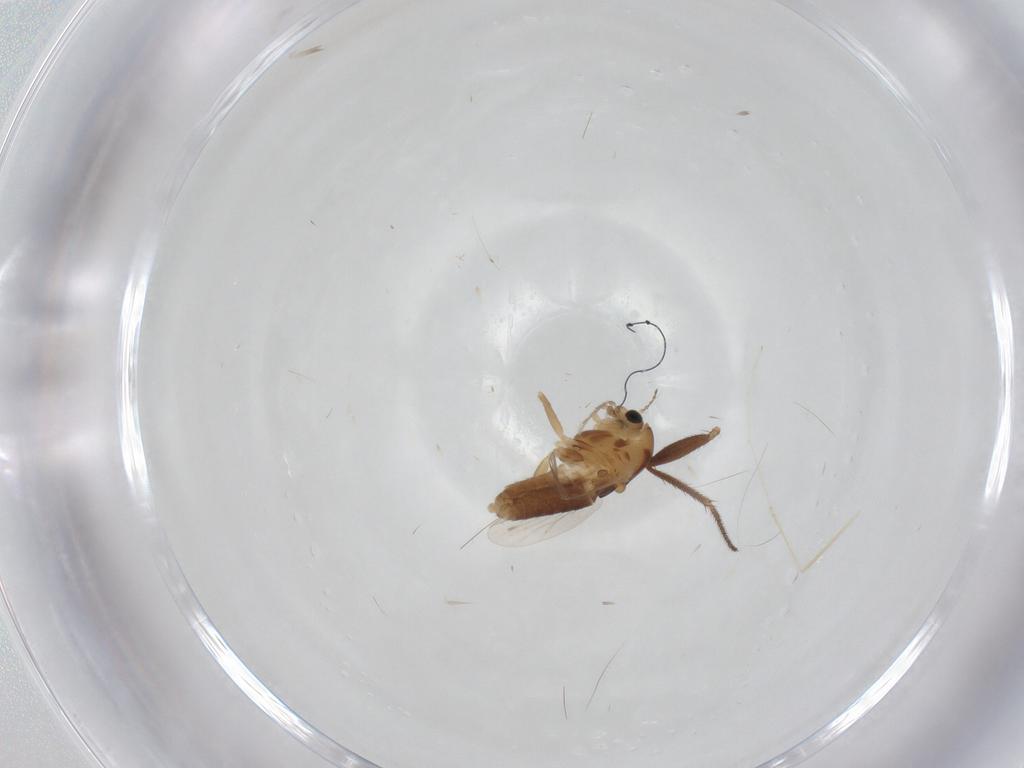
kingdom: Animalia
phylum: Arthropoda
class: Insecta
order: Diptera
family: Chironomidae
